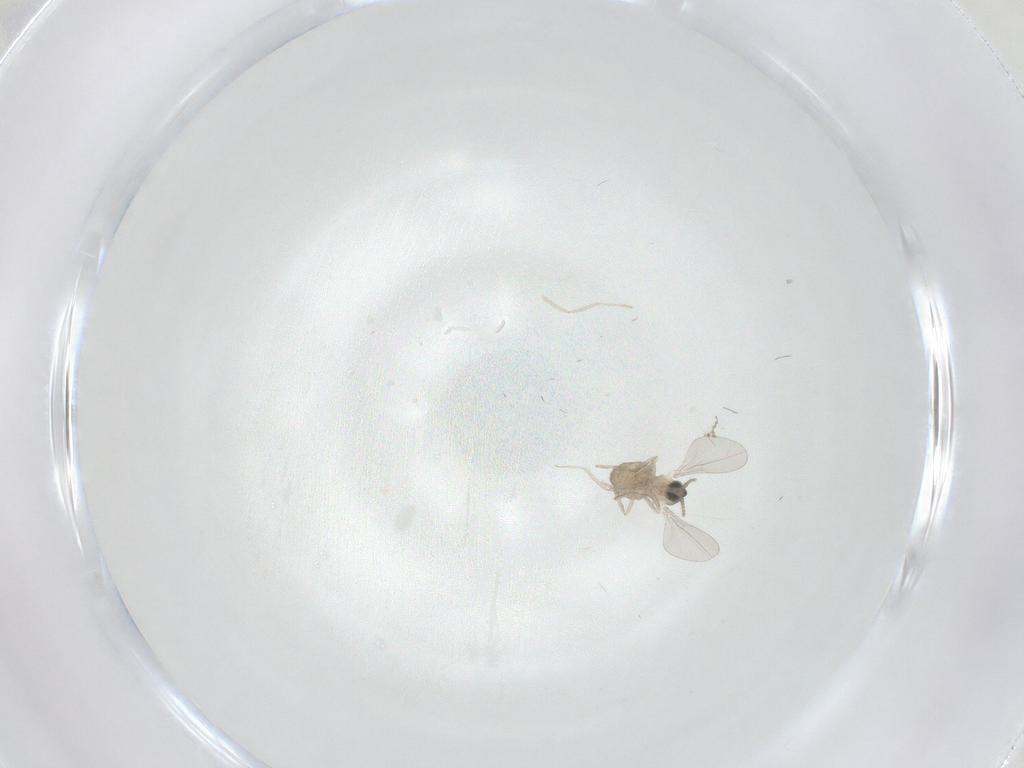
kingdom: Animalia
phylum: Arthropoda
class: Insecta
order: Diptera
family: Cecidomyiidae
